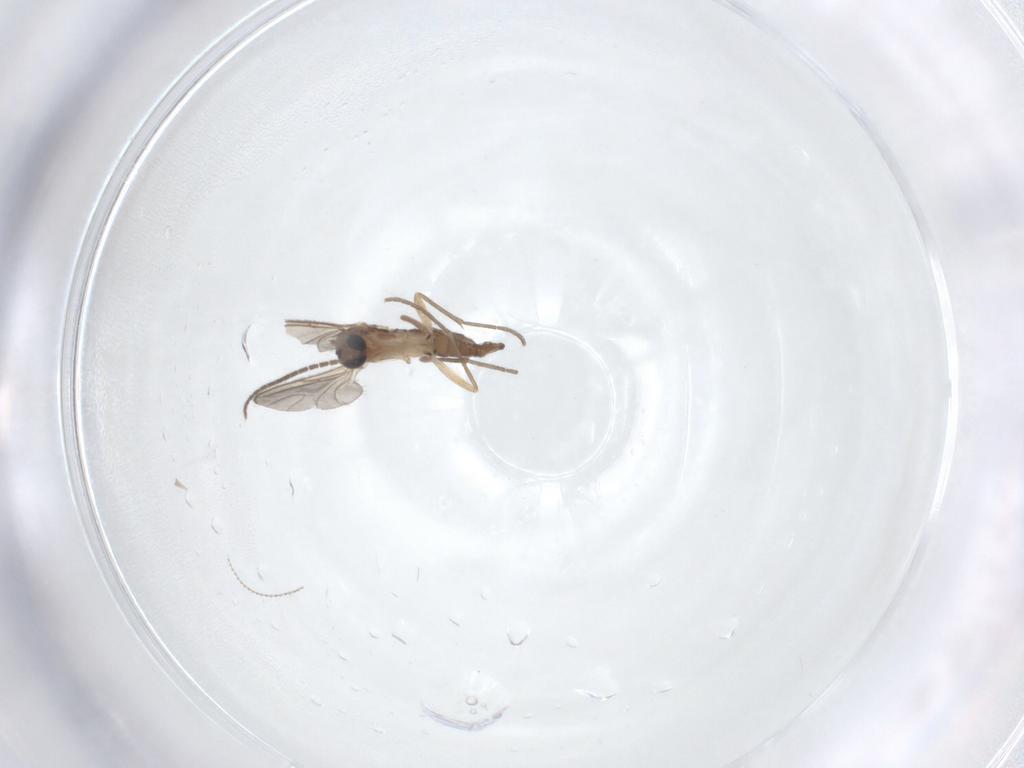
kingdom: Animalia
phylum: Arthropoda
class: Insecta
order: Diptera
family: Sciaridae
